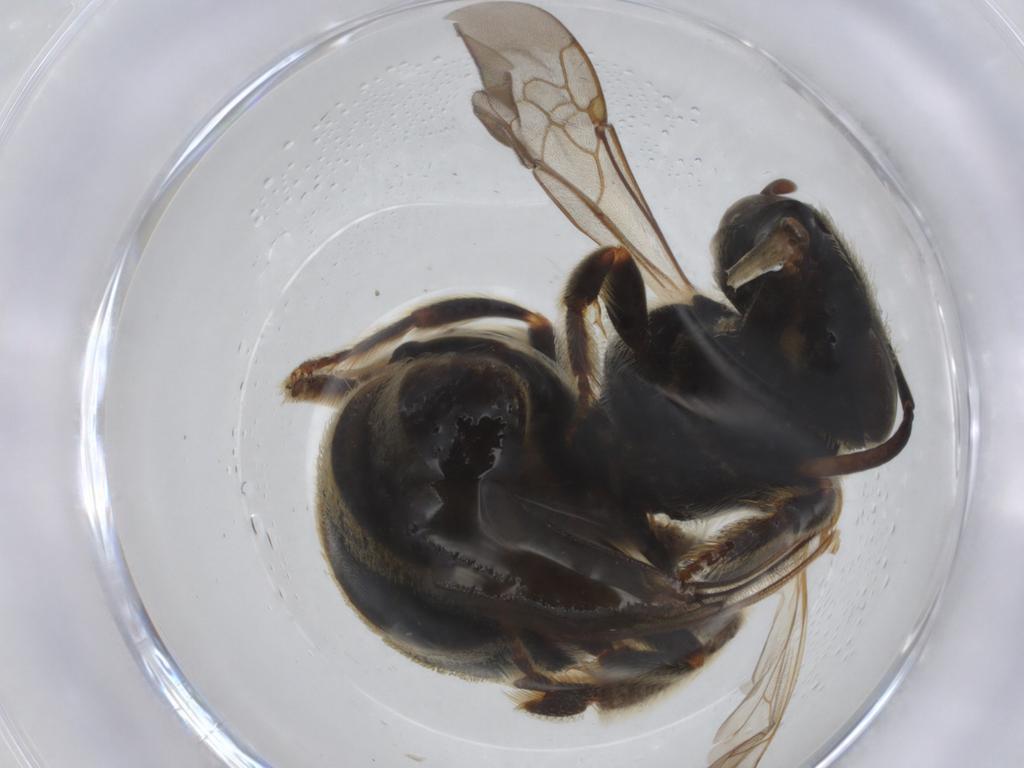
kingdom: Animalia
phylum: Arthropoda
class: Insecta
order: Hymenoptera
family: Halictidae
